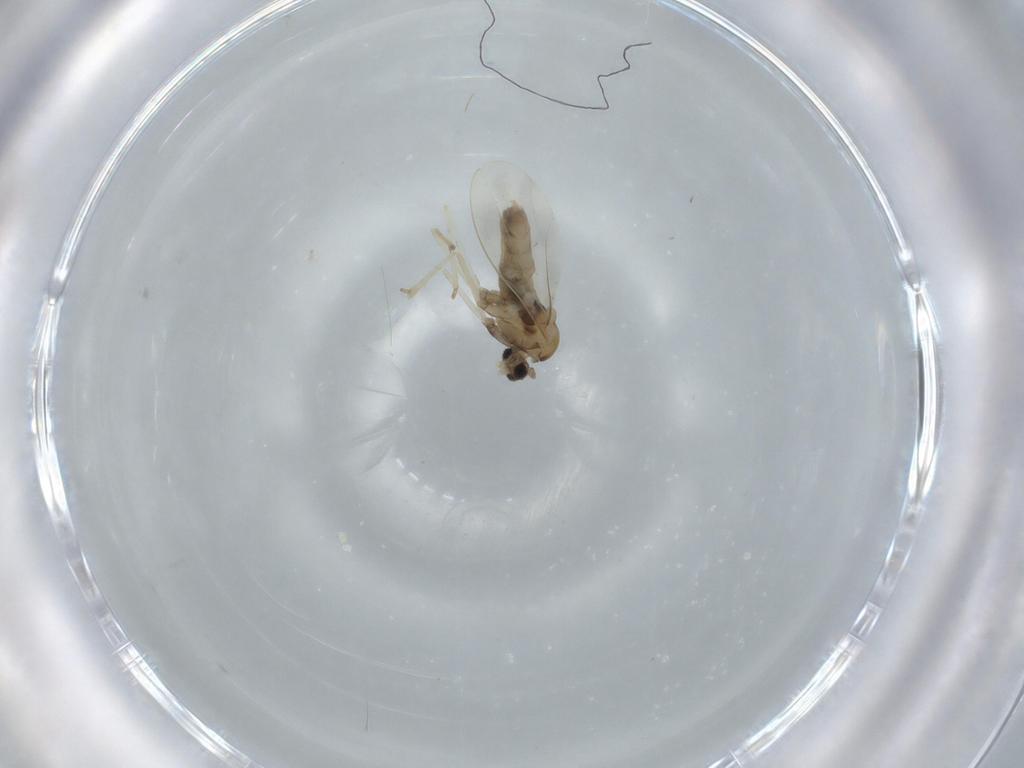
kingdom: Animalia
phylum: Arthropoda
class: Insecta
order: Diptera
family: Cecidomyiidae
